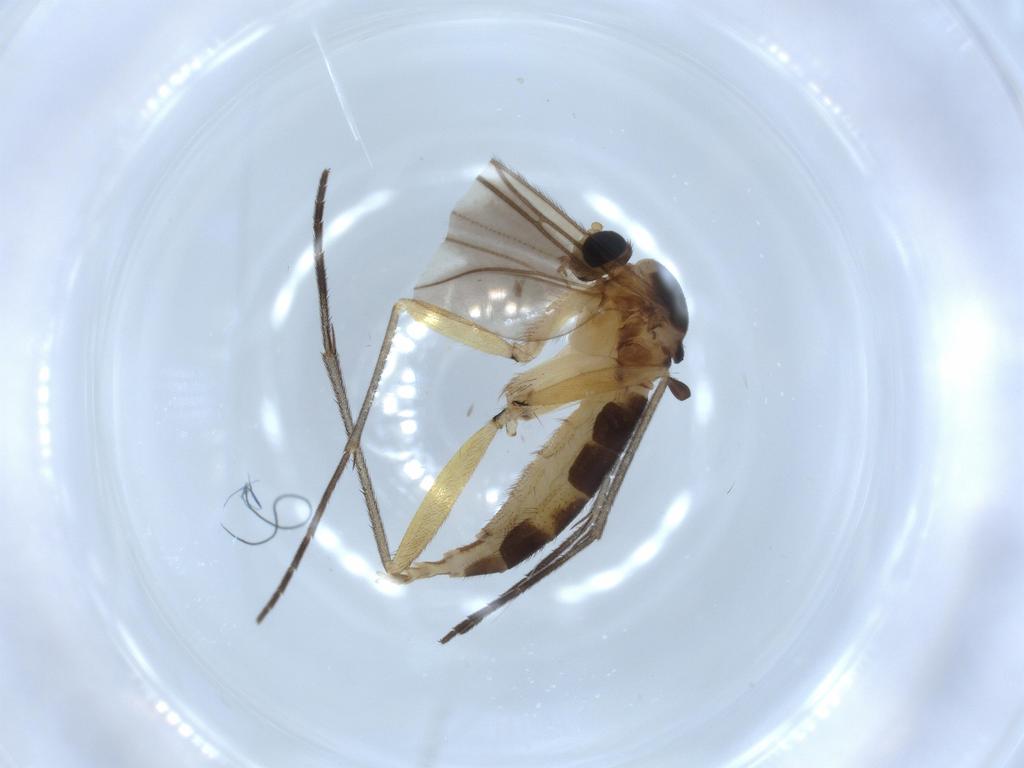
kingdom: Animalia
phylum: Arthropoda
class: Insecta
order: Diptera
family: Sciaridae
